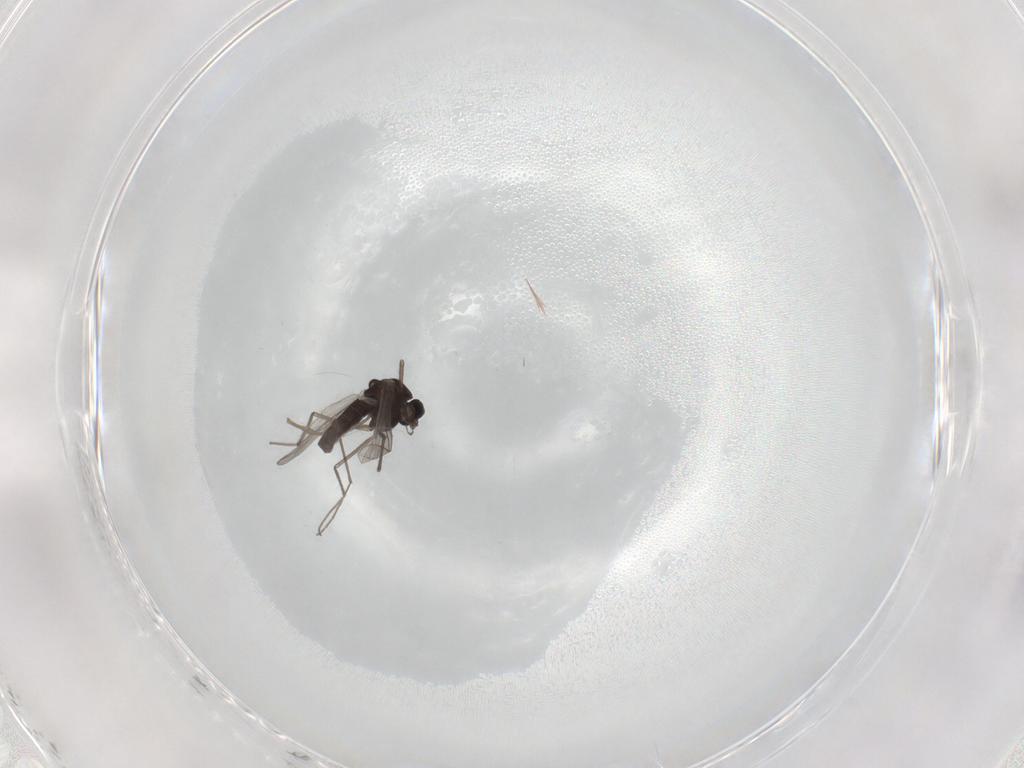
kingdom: Animalia
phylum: Arthropoda
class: Insecta
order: Diptera
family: Chironomidae
